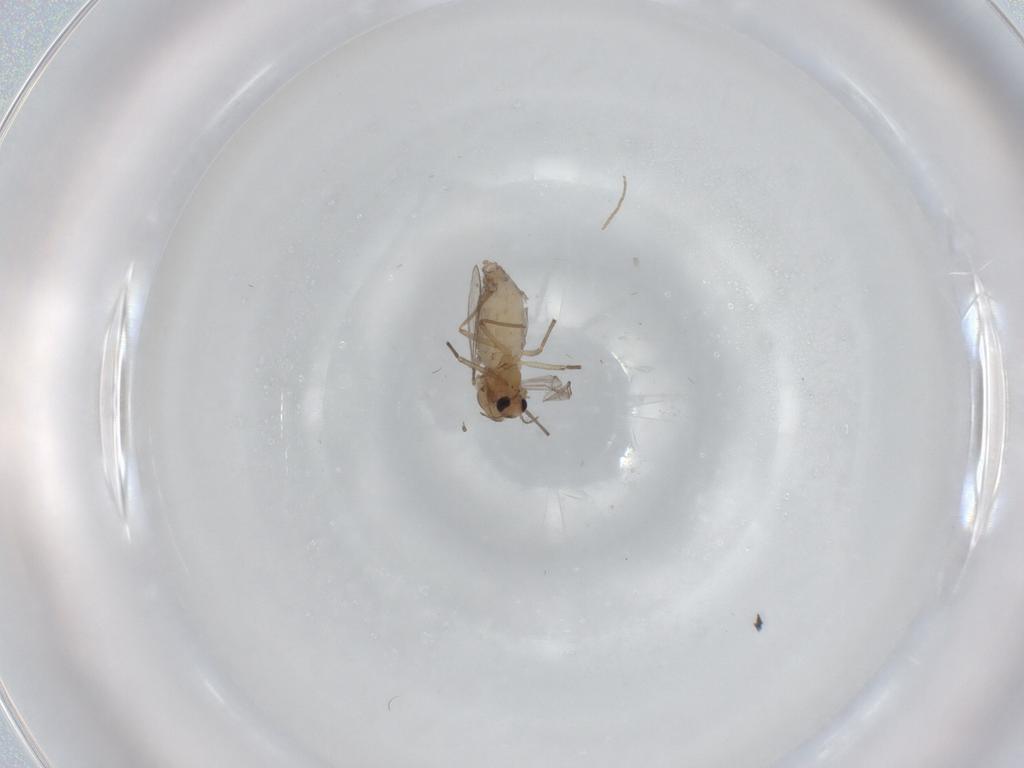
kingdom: Animalia
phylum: Arthropoda
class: Insecta
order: Diptera
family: Chironomidae
